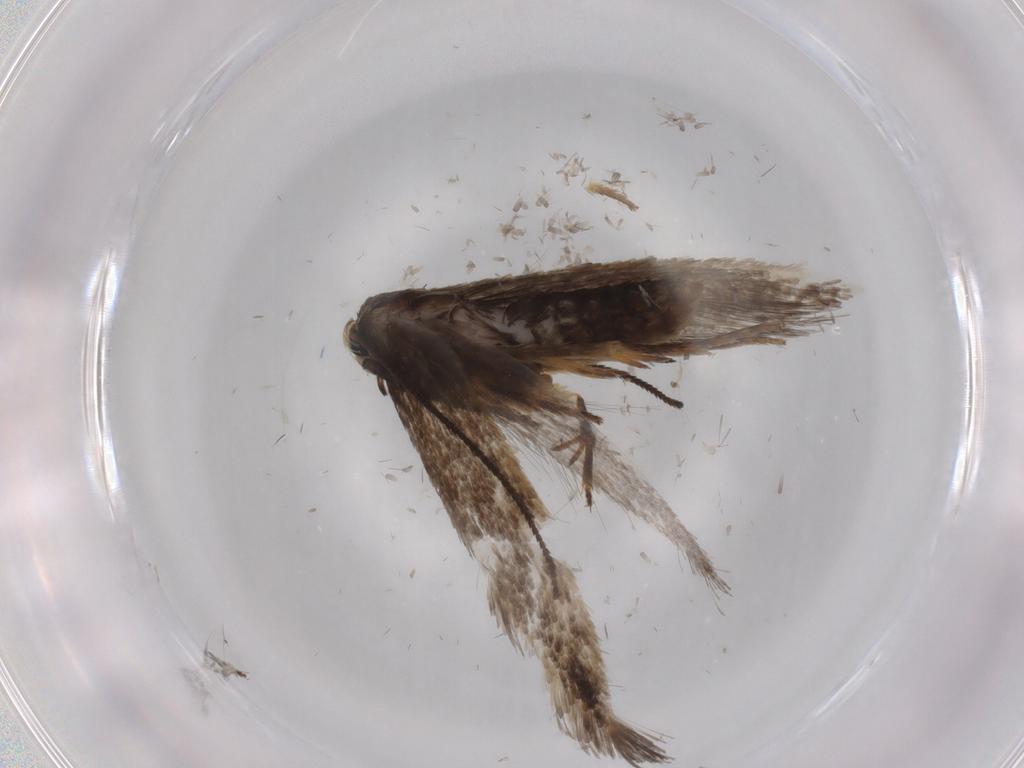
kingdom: Animalia
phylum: Arthropoda
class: Insecta
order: Lepidoptera
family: Nepticulidae
